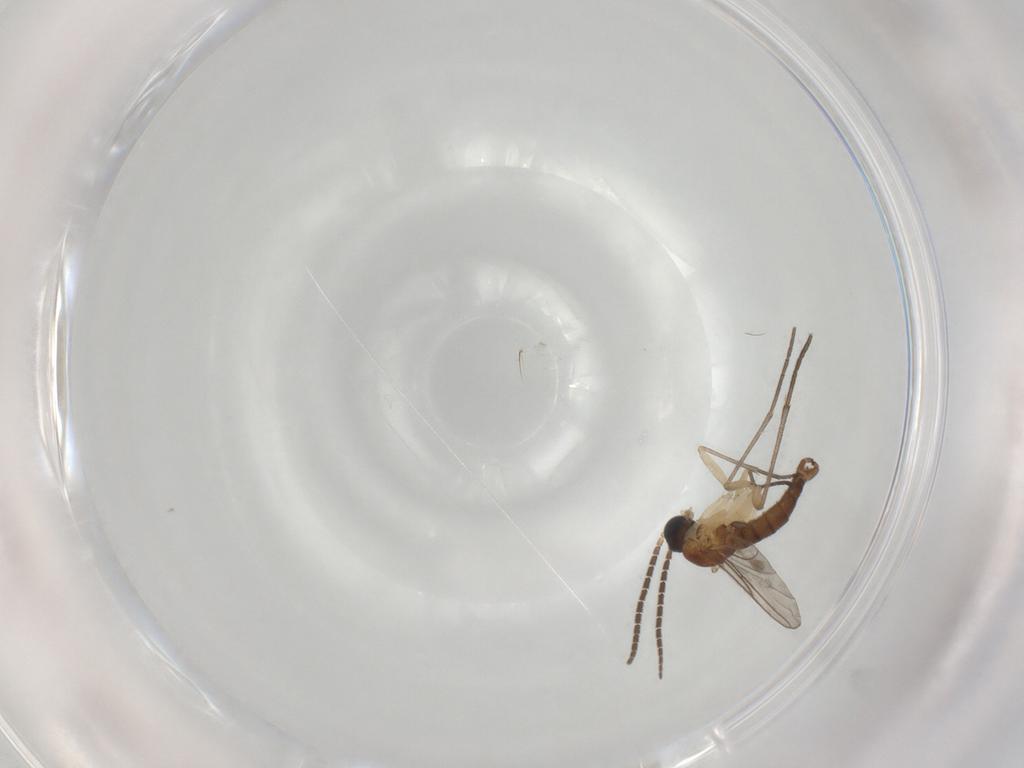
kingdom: Animalia
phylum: Arthropoda
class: Insecta
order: Diptera
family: Sciaridae
